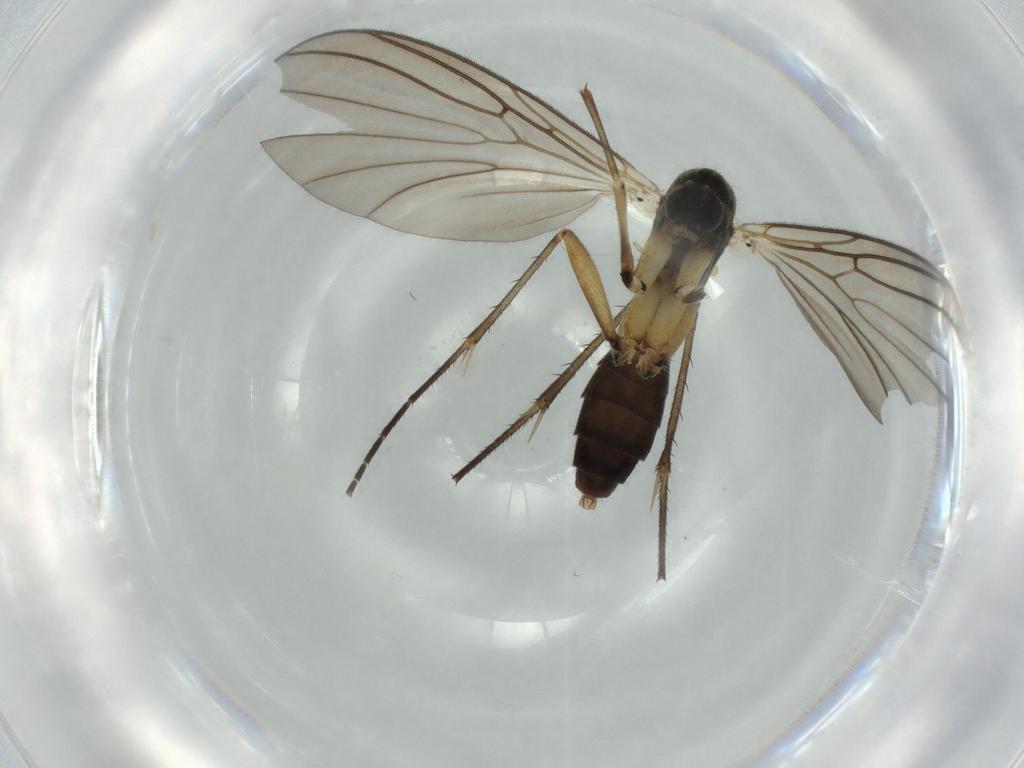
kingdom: Animalia
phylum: Arthropoda
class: Insecta
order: Diptera
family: Mycetophilidae
